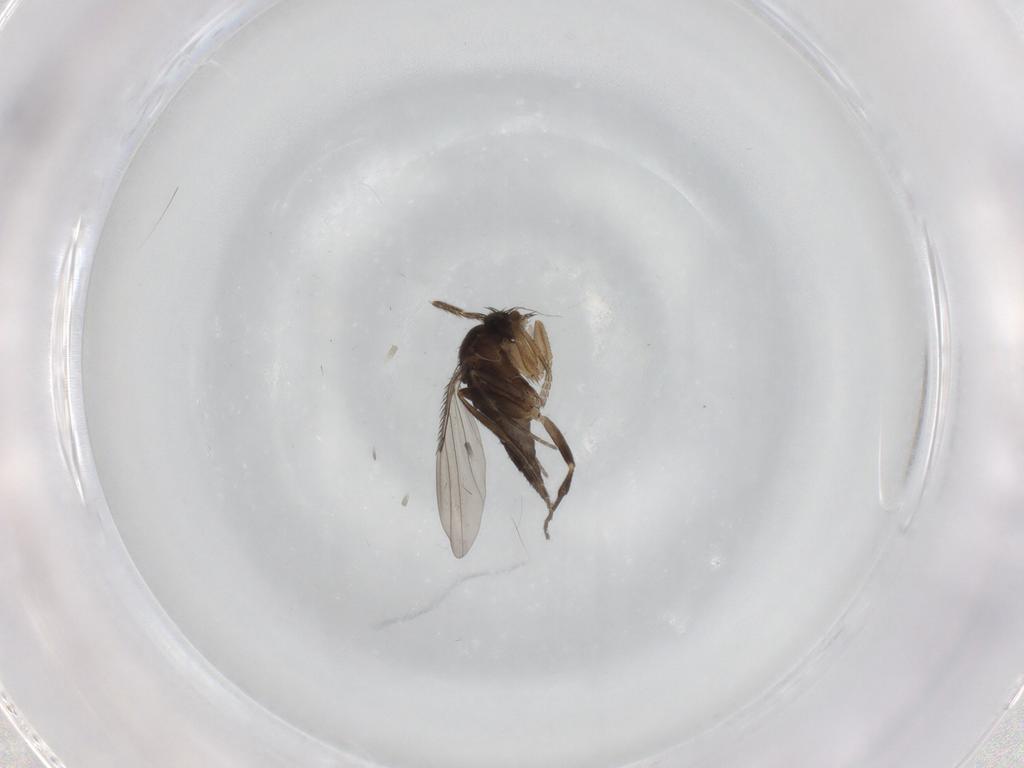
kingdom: Animalia
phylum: Arthropoda
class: Insecta
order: Diptera
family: Phoridae
